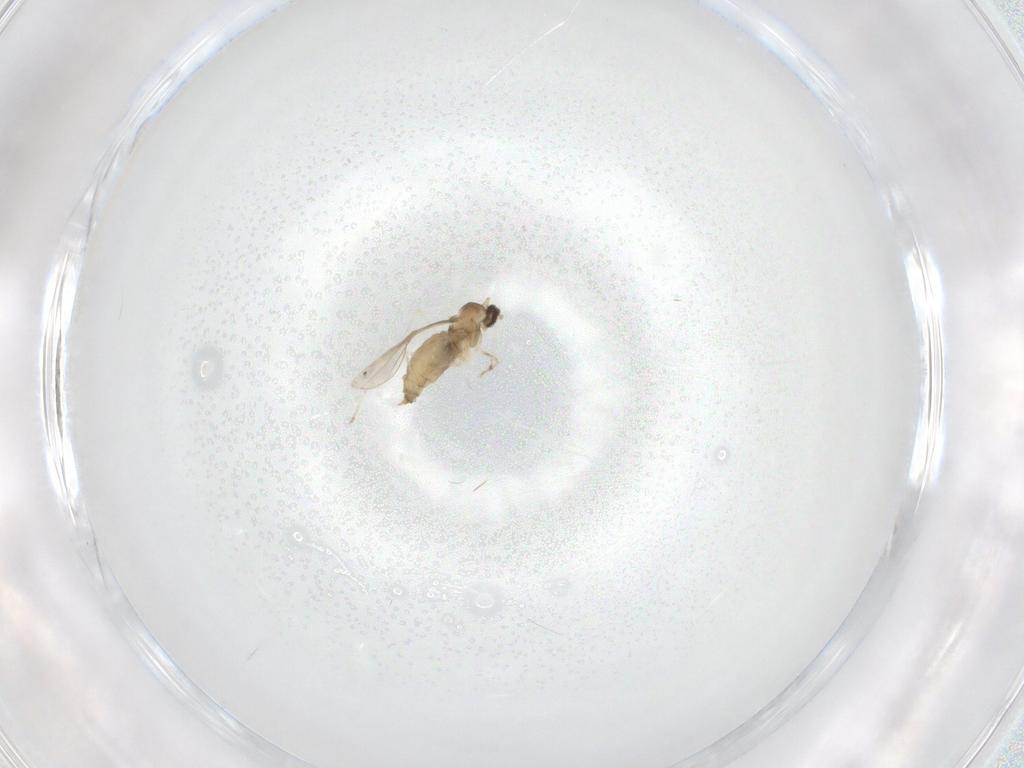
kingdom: Animalia
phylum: Arthropoda
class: Insecta
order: Diptera
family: Cecidomyiidae
